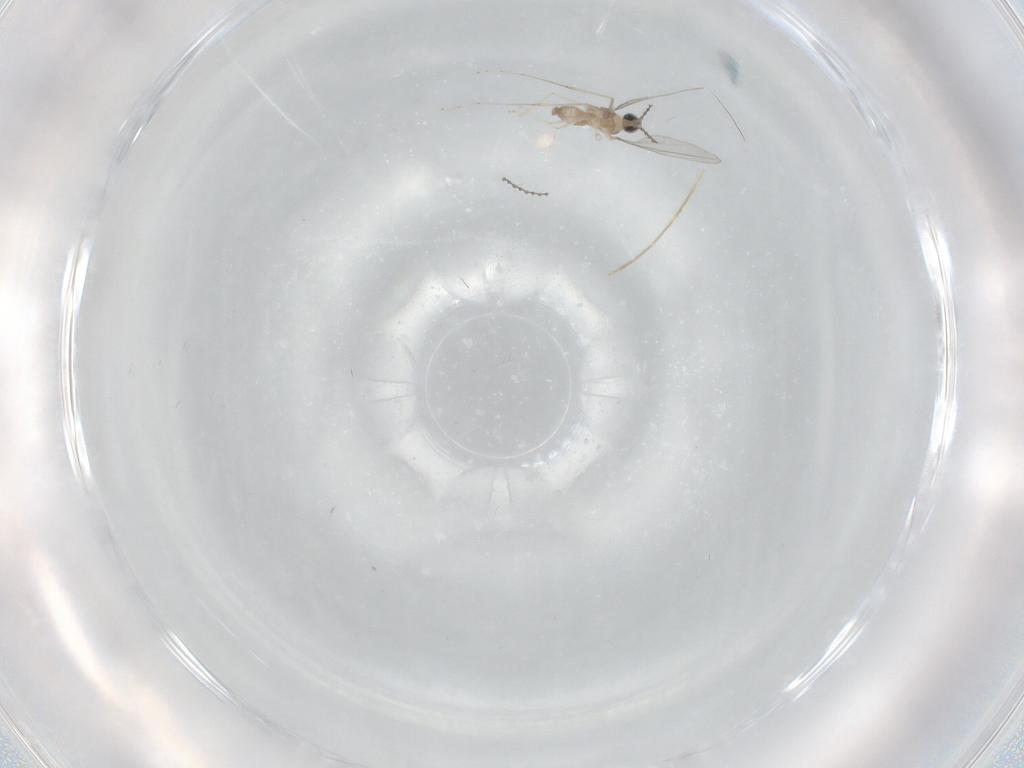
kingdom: Animalia
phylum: Arthropoda
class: Insecta
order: Diptera
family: Cecidomyiidae
